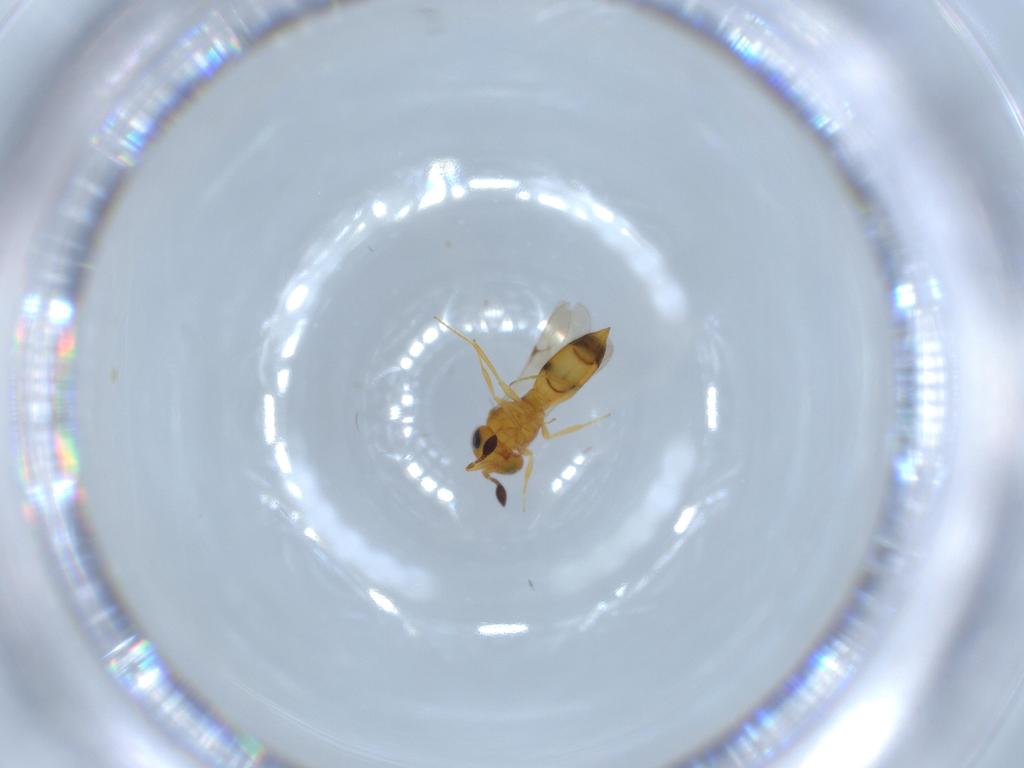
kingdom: Animalia
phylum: Arthropoda
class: Insecta
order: Hymenoptera
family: Scelionidae
